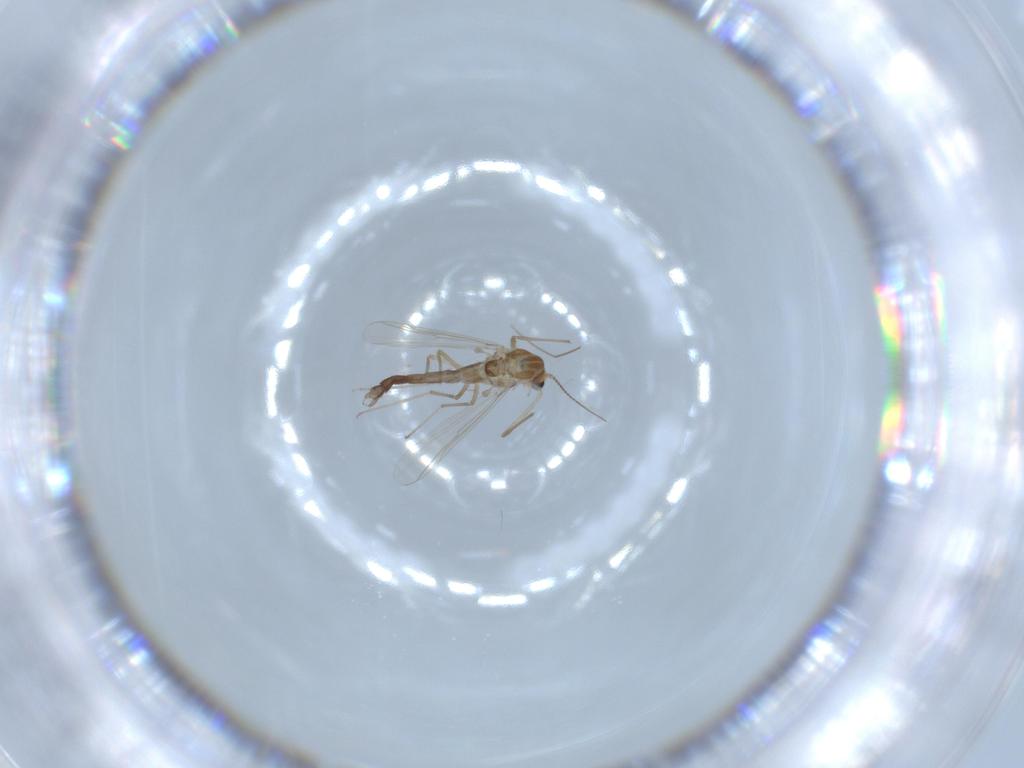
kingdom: Animalia
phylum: Arthropoda
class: Insecta
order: Diptera
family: Chironomidae
